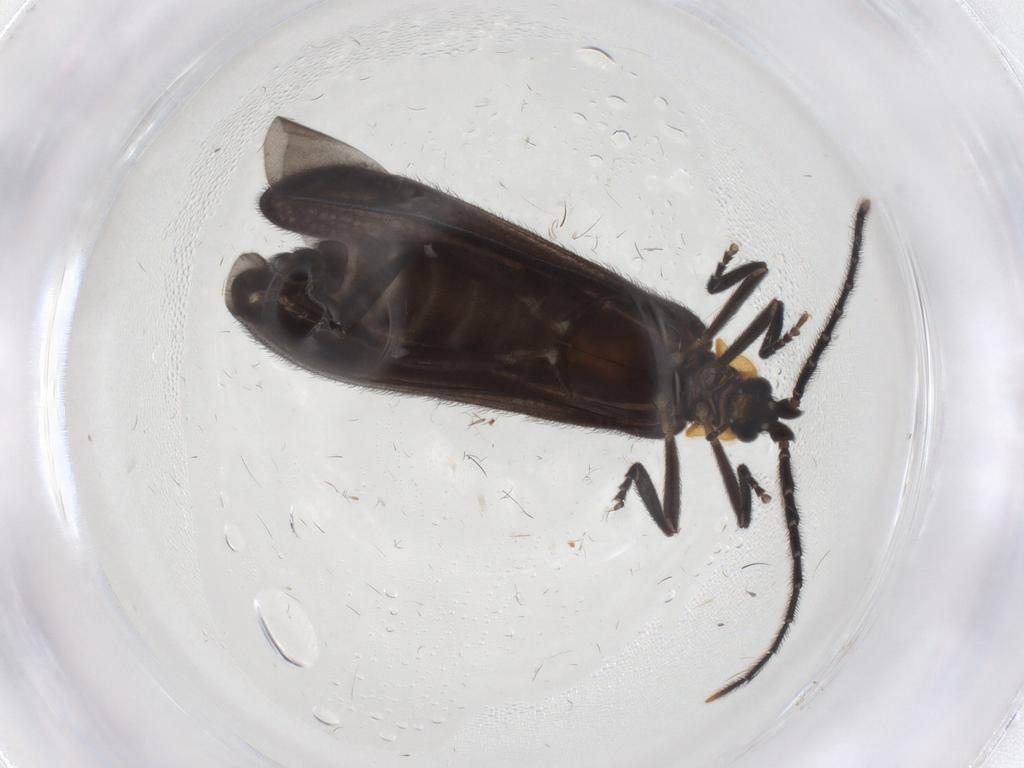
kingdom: Animalia
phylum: Arthropoda
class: Insecta
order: Coleoptera
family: Lycidae
